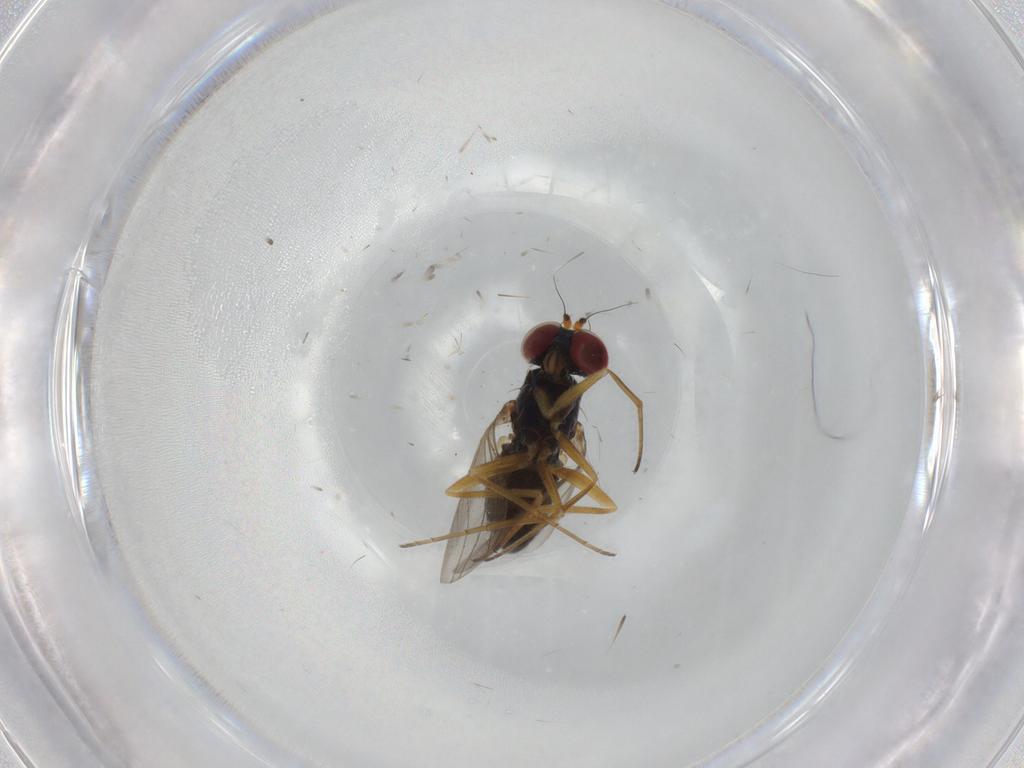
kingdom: Animalia
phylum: Arthropoda
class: Insecta
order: Diptera
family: Dolichopodidae
